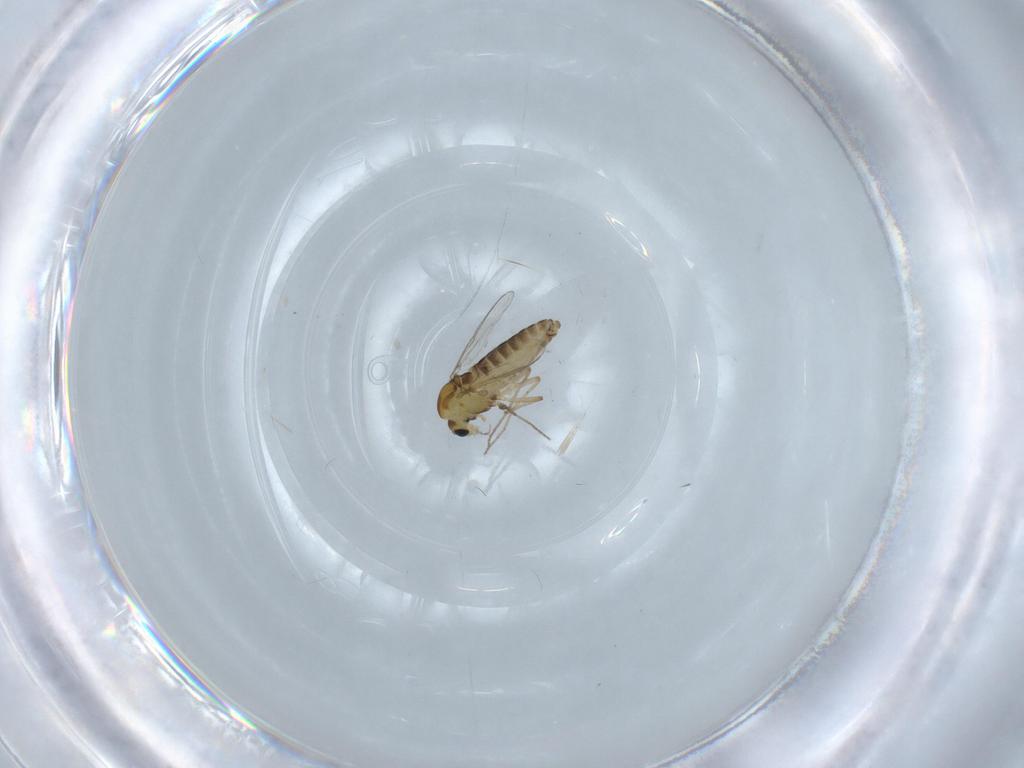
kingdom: Animalia
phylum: Arthropoda
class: Insecta
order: Diptera
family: Chironomidae
